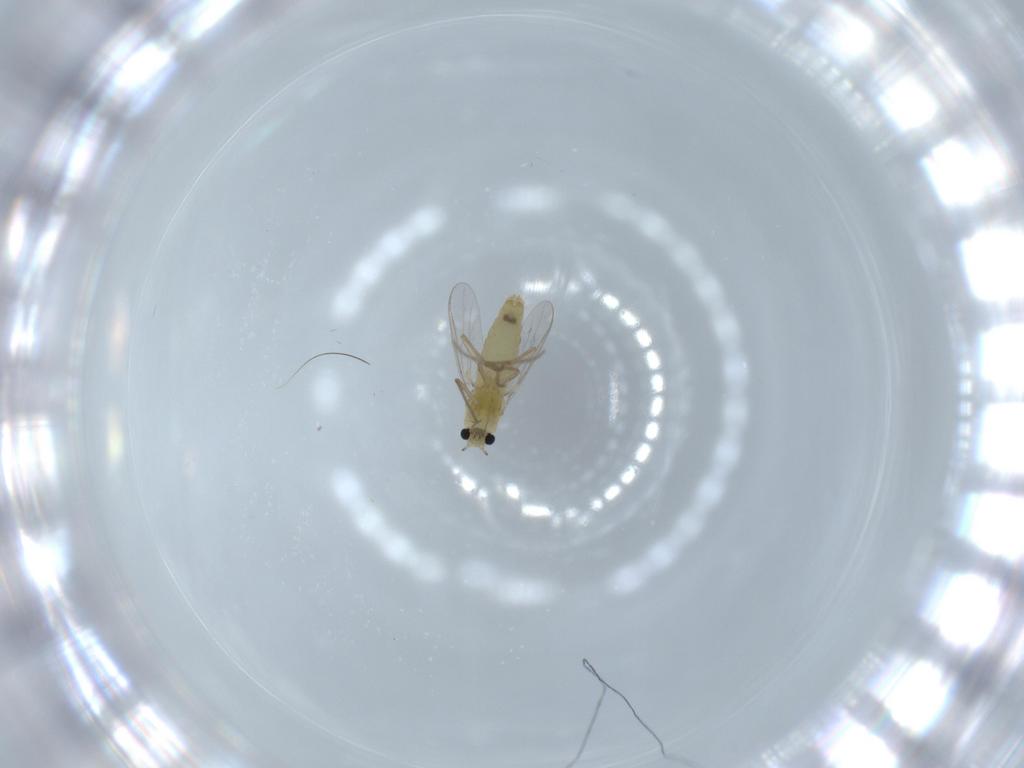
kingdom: Animalia
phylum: Arthropoda
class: Insecta
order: Diptera
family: Chironomidae
